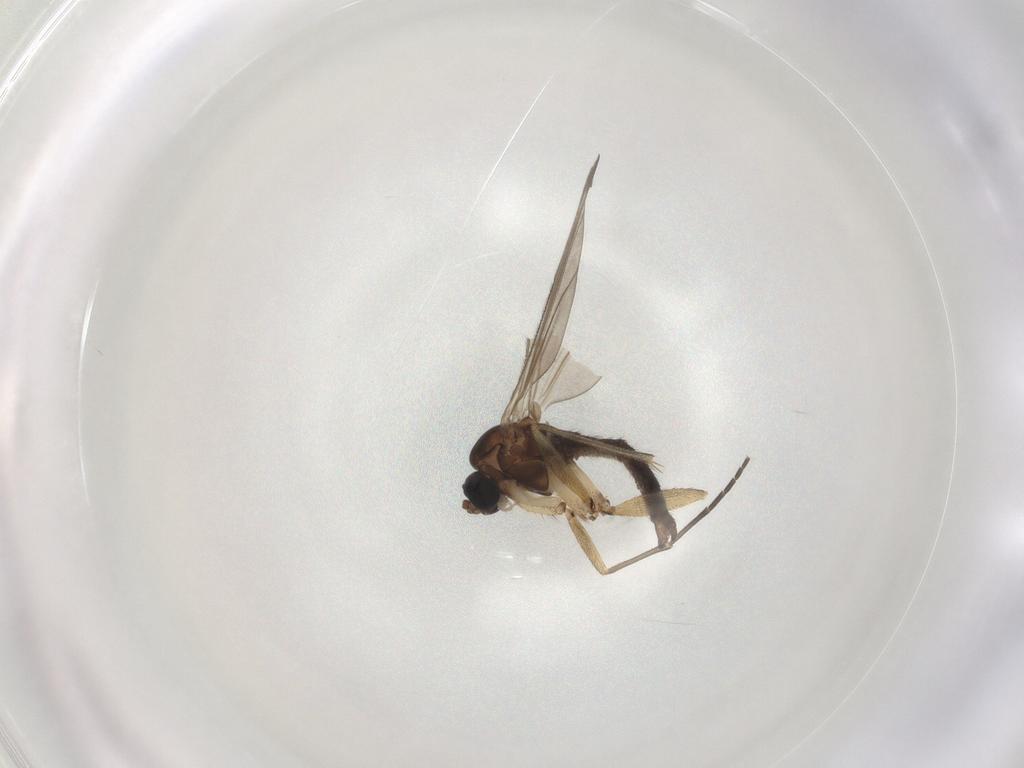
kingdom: Animalia
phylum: Arthropoda
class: Insecta
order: Diptera
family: Sciaridae
